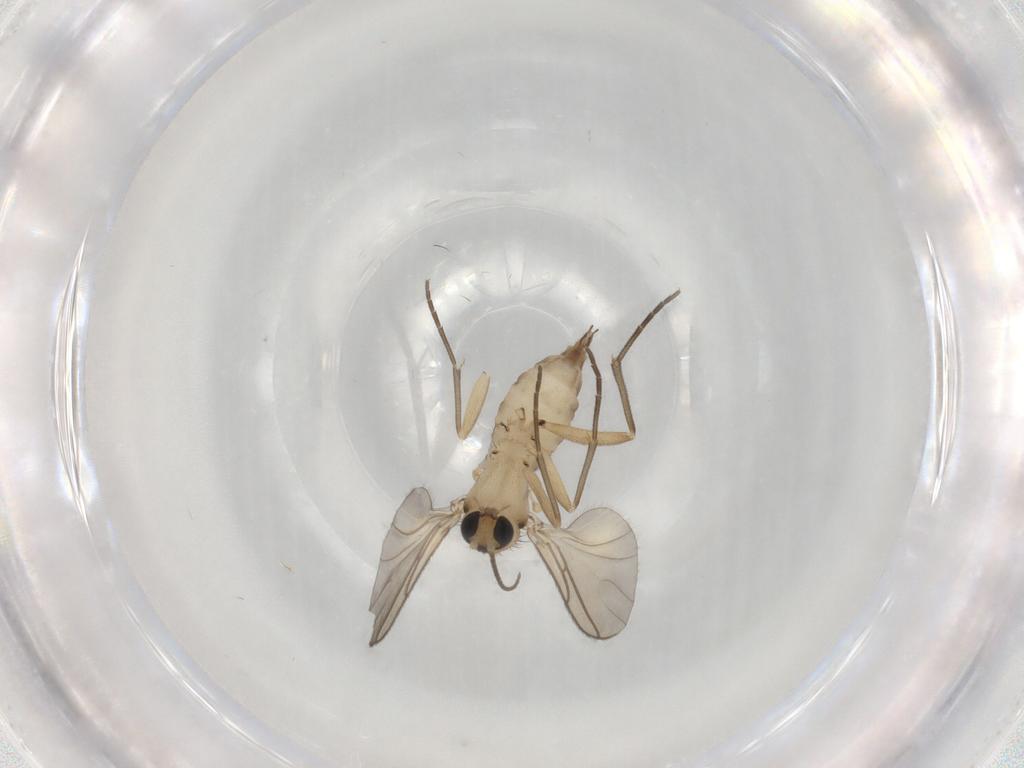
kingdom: Animalia
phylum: Arthropoda
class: Insecta
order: Diptera
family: Sciaridae
